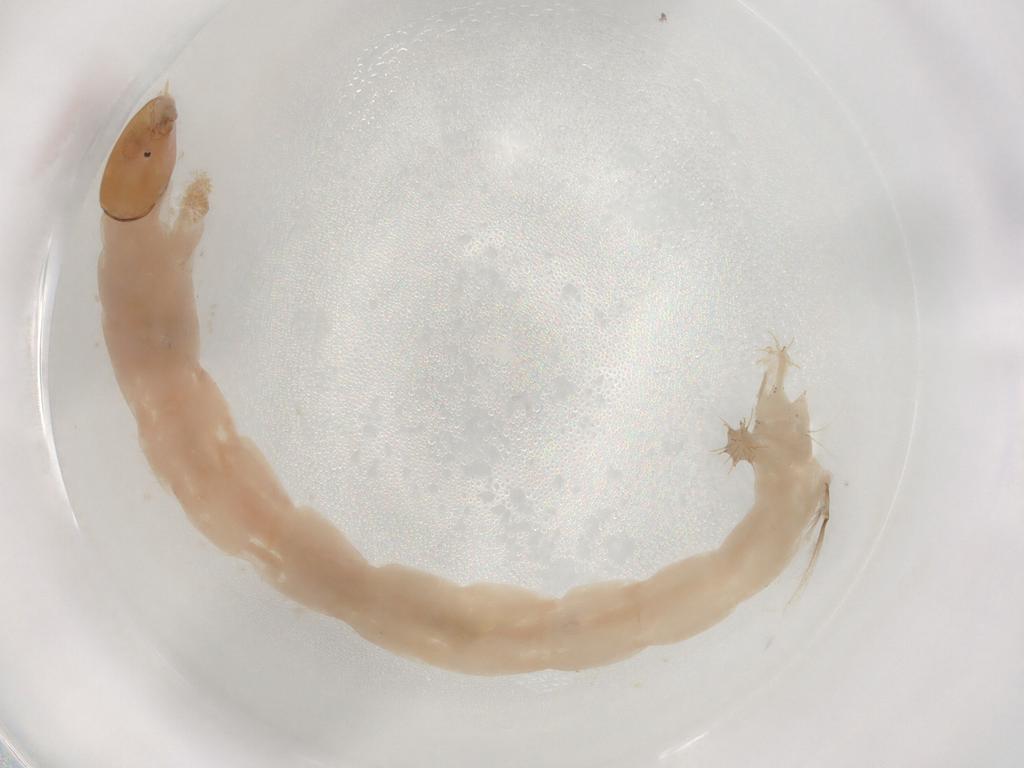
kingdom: Animalia
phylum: Arthropoda
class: Insecta
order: Diptera
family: Chironomidae
